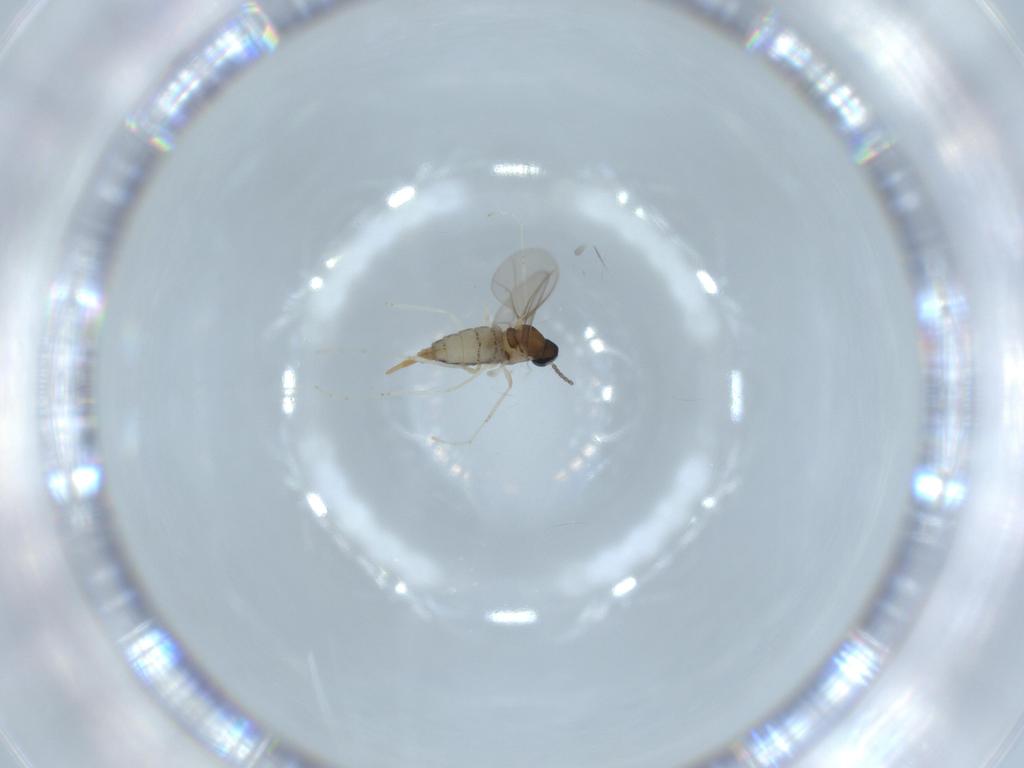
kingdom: Animalia
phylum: Arthropoda
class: Insecta
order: Diptera
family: Cecidomyiidae
